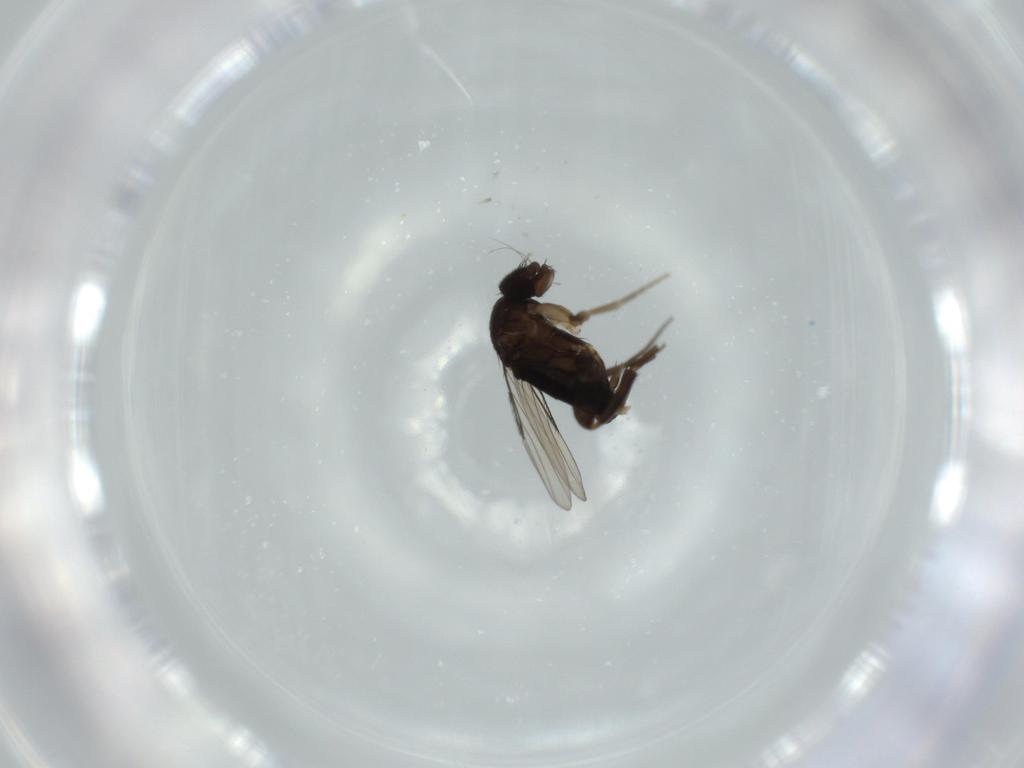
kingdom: Animalia
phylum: Arthropoda
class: Insecta
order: Diptera
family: Phoridae
